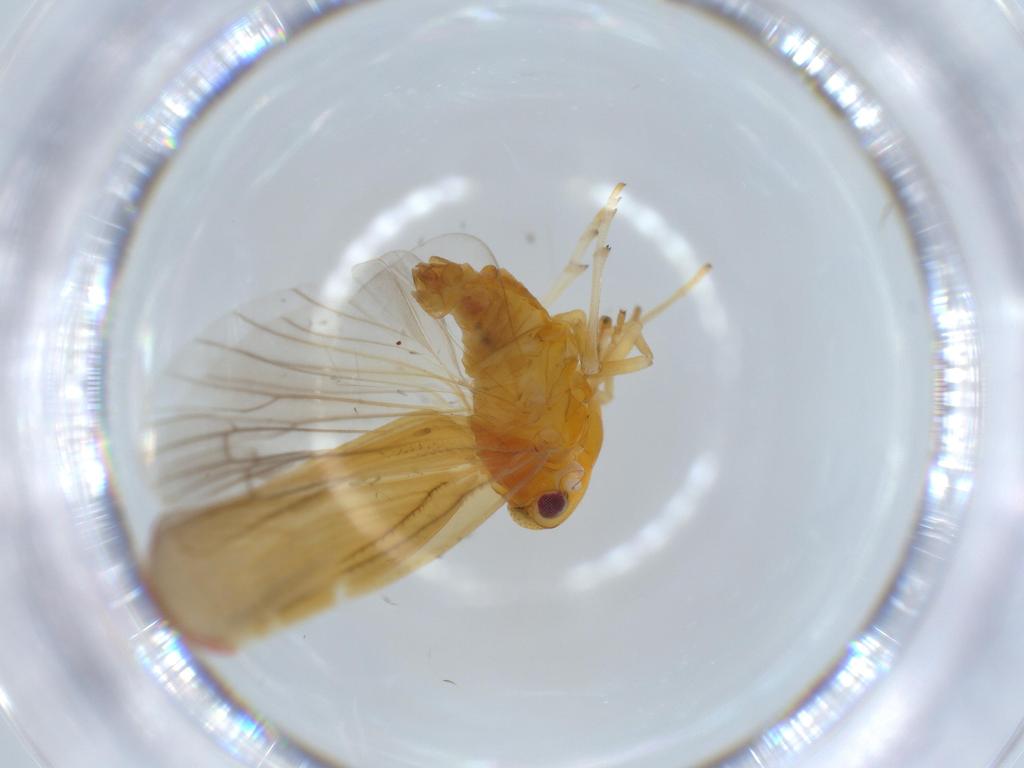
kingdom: Animalia
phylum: Arthropoda
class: Insecta
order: Hemiptera
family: Derbidae
